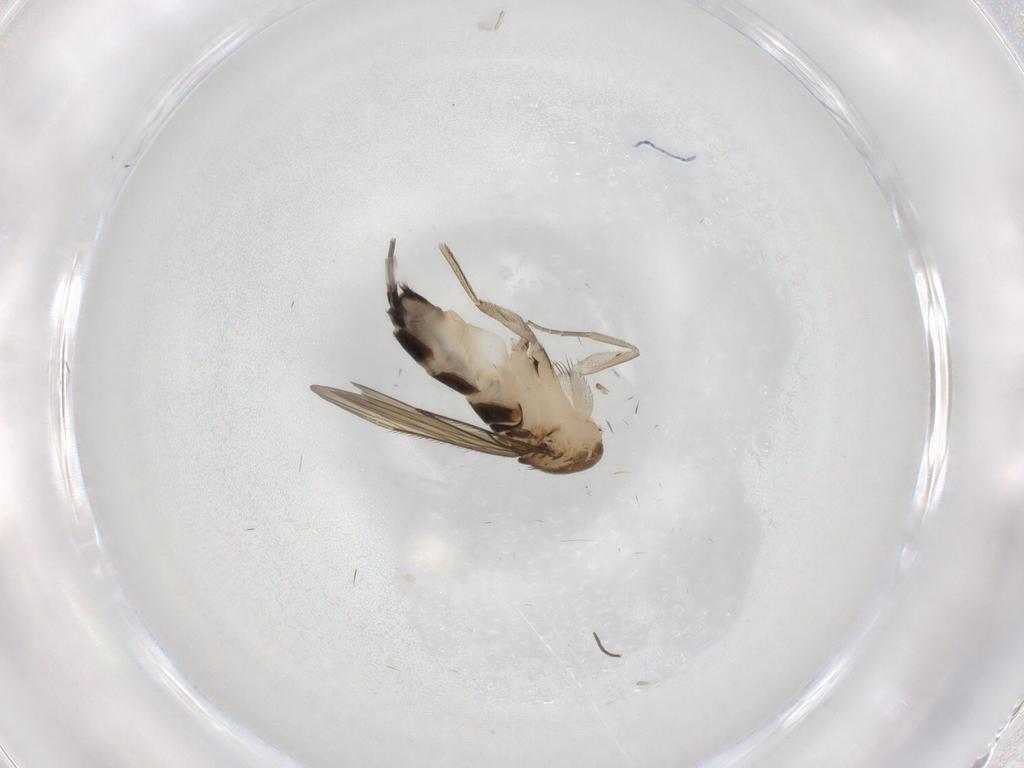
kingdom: Animalia
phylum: Arthropoda
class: Insecta
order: Diptera
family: Phoridae
